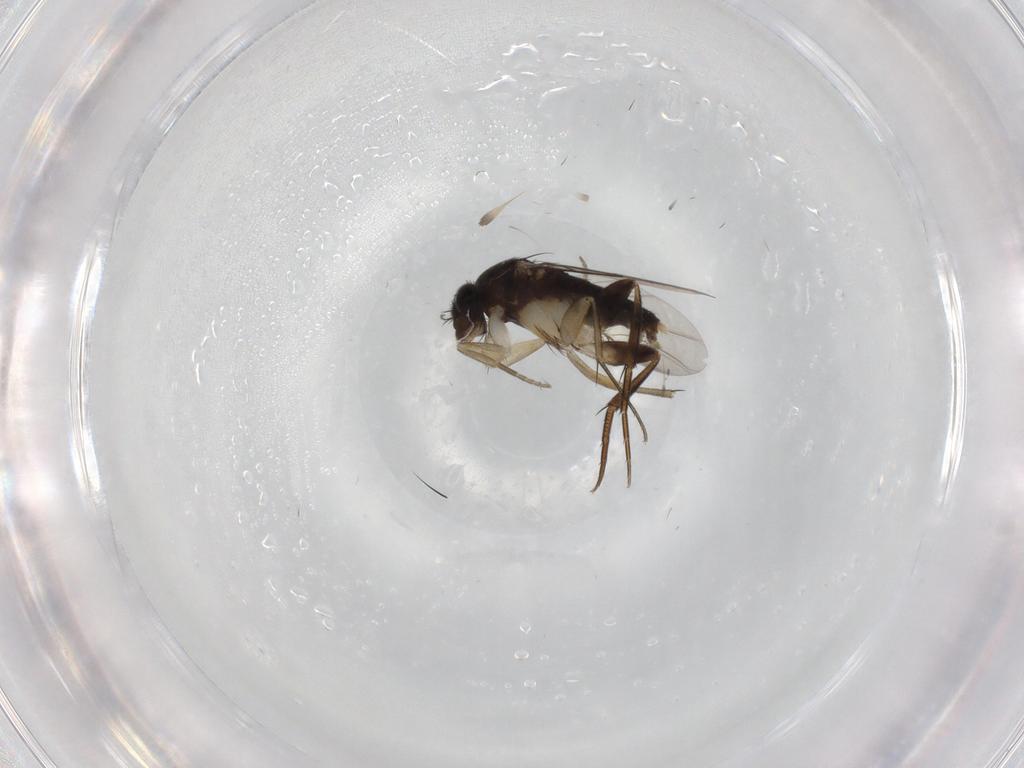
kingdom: Animalia
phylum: Arthropoda
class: Insecta
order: Diptera
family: Phoridae
